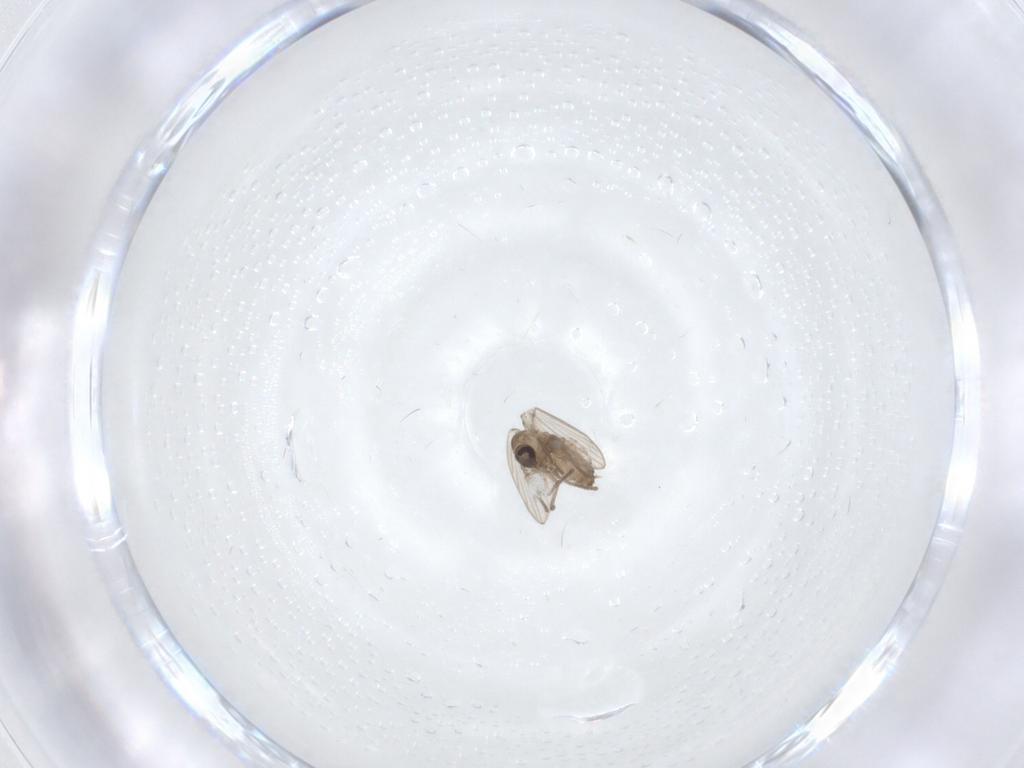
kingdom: Animalia
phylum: Arthropoda
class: Insecta
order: Diptera
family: Psychodidae
